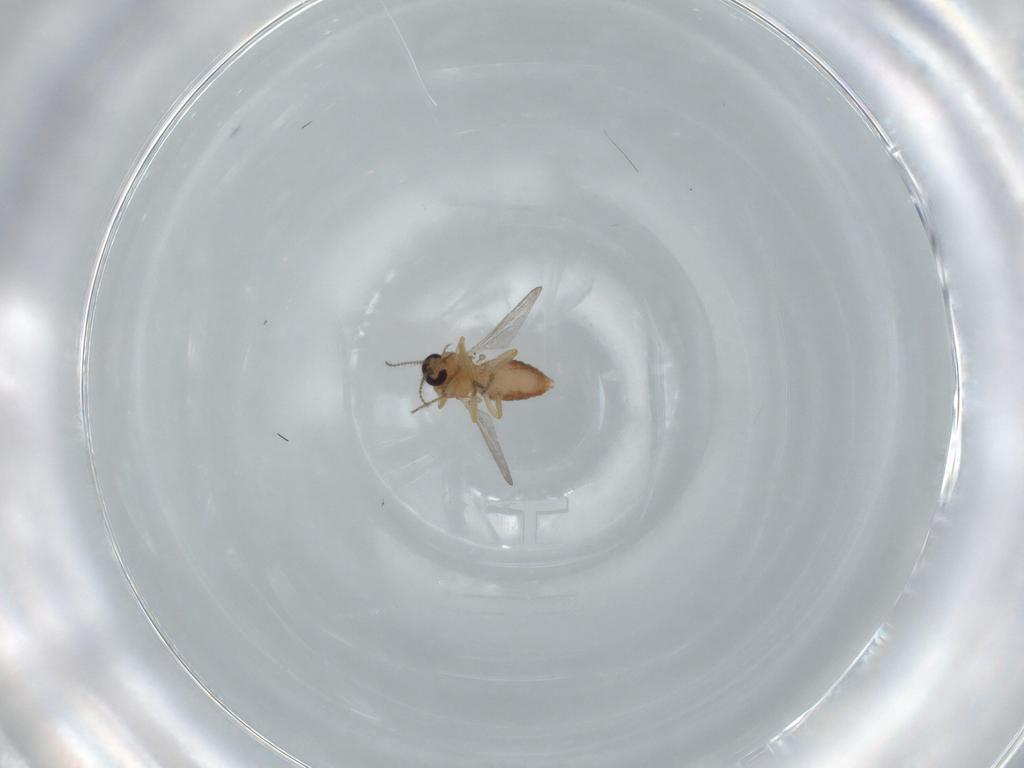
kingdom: Animalia
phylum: Arthropoda
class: Insecta
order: Diptera
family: Ceratopogonidae
